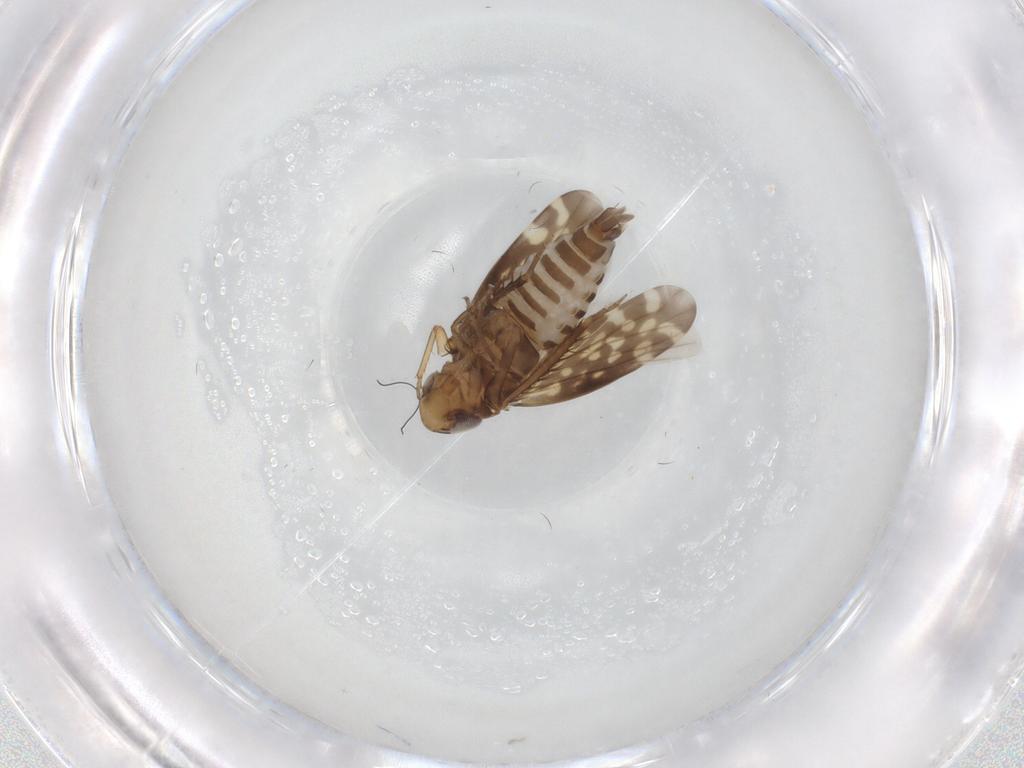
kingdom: Animalia
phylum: Arthropoda
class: Insecta
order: Hemiptera
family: Cicadellidae
